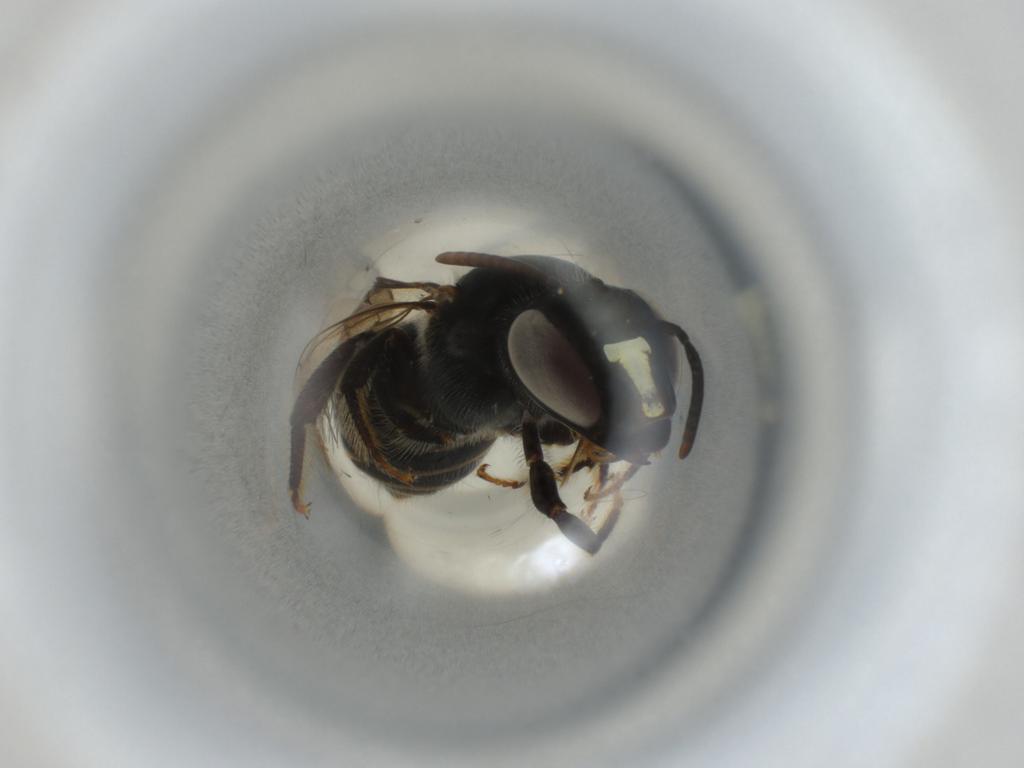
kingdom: Animalia
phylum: Arthropoda
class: Insecta
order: Hymenoptera
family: Apidae
